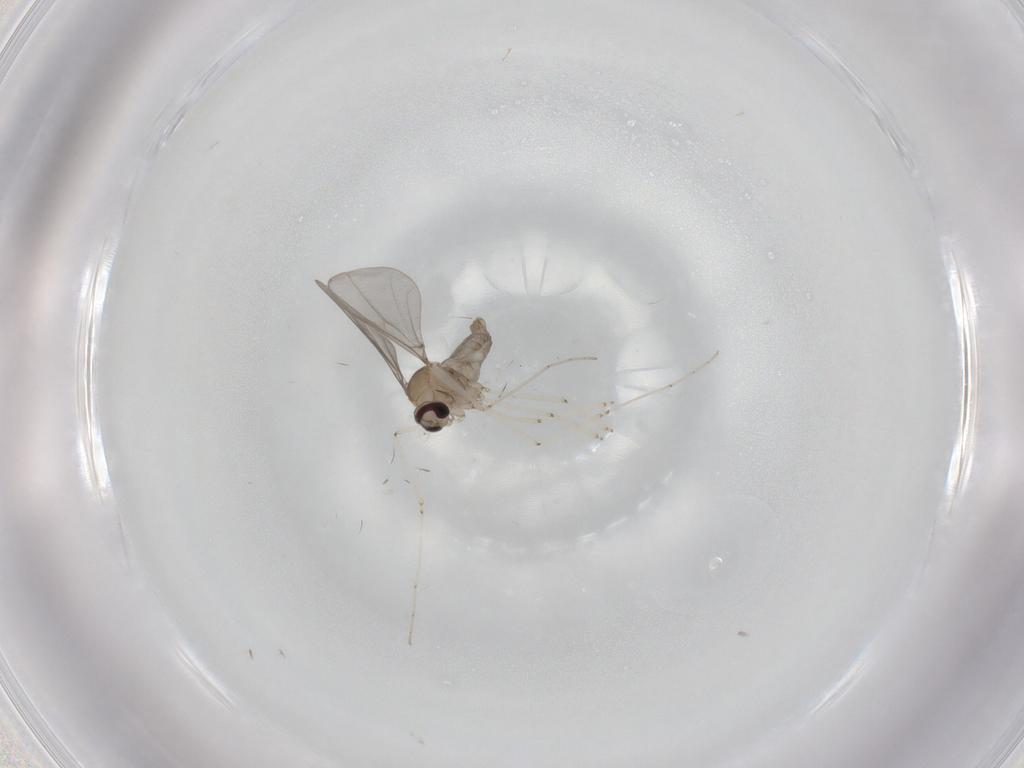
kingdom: Animalia
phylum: Arthropoda
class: Insecta
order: Diptera
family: Cecidomyiidae
